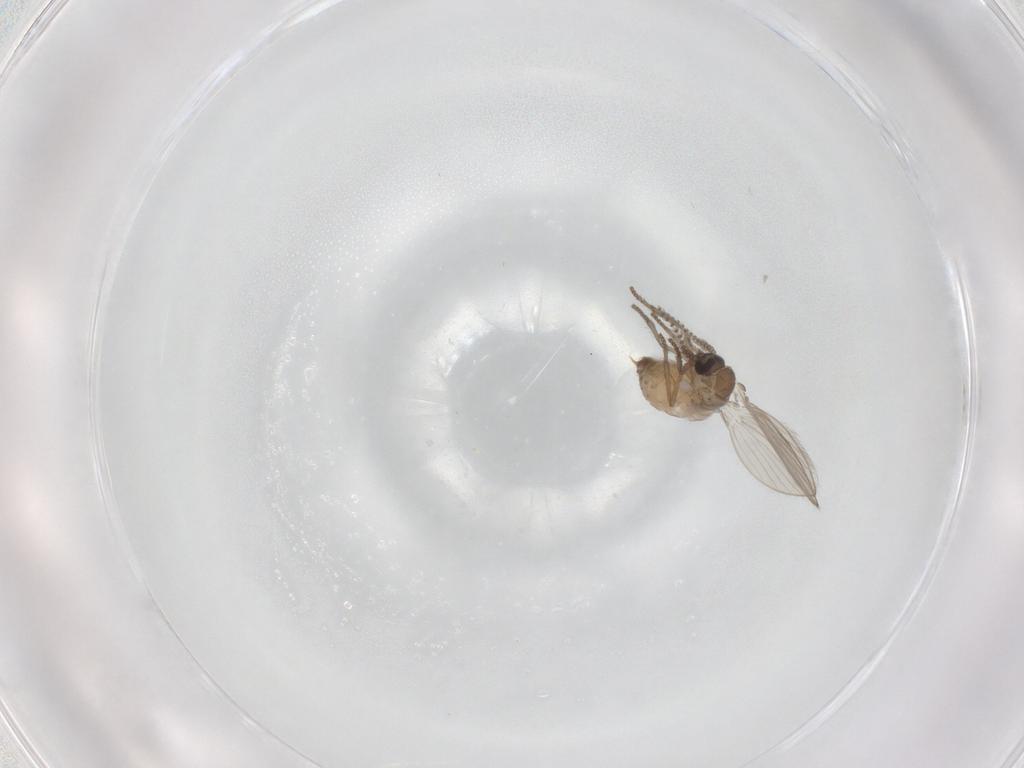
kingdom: Animalia
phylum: Arthropoda
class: Insecta
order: Diptera
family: Psychodidae
